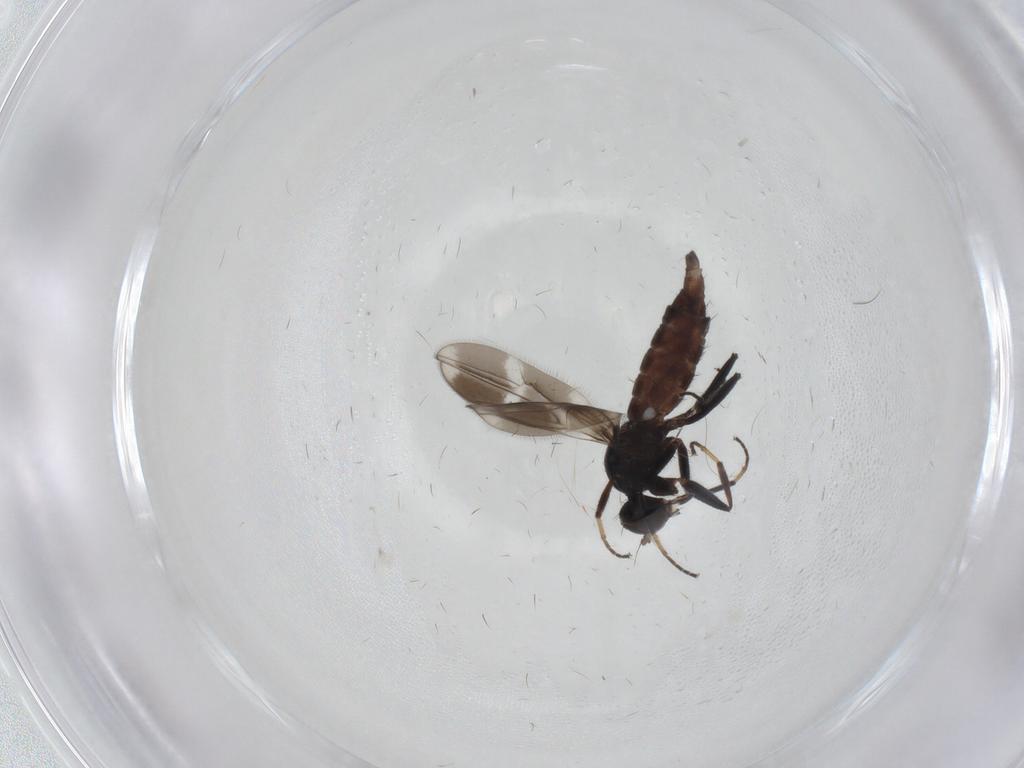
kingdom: Animalia
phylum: Arthropoda
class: Insecta
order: Diptera
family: Hybotidae
